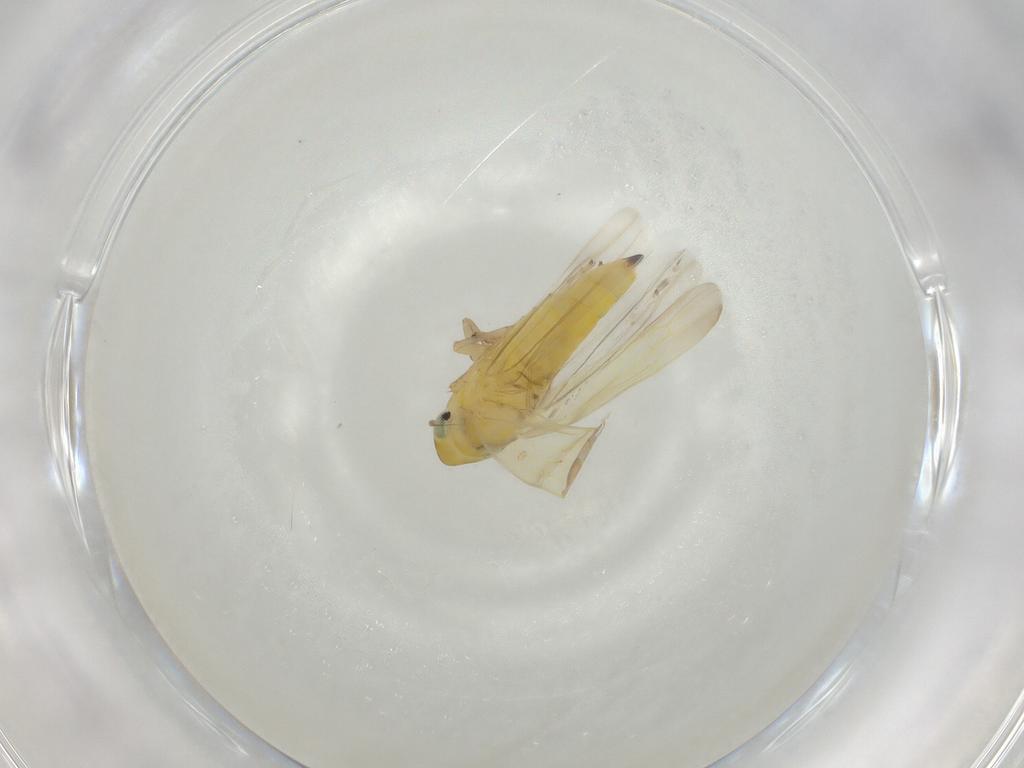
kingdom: Animalia
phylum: Arthropoda
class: Insecta
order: Hemiptera
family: Cicadellidae
